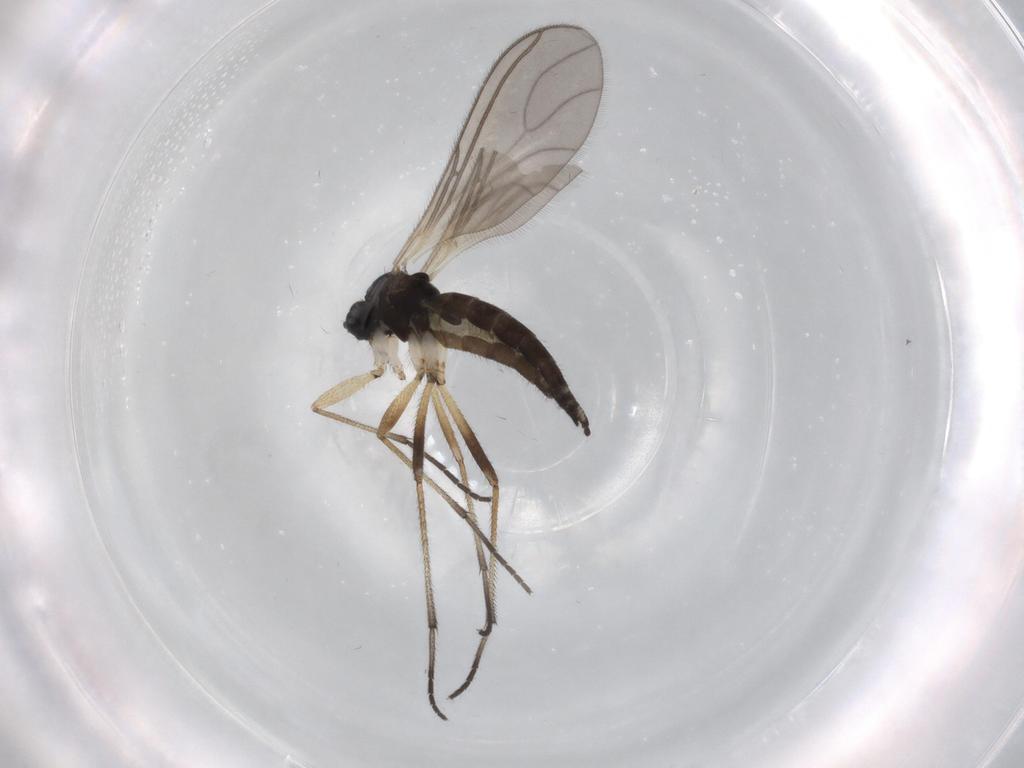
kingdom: Animalia
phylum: Arthropoda
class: Insecta
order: Diptera
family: Sciaridae
